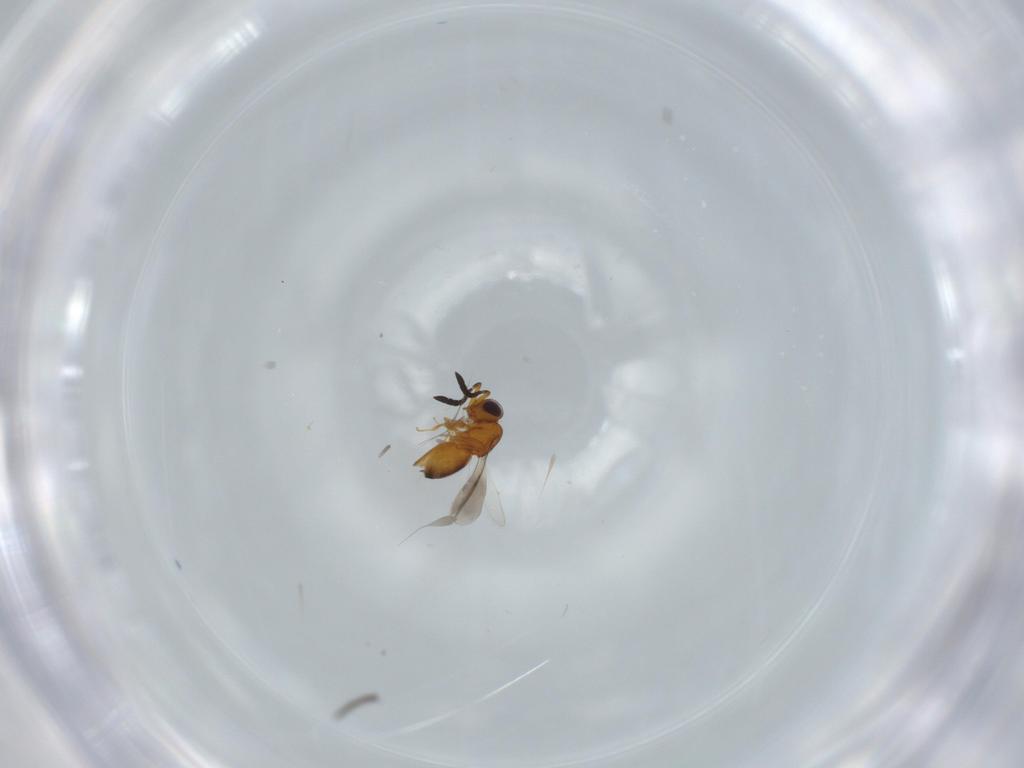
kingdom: Animalia
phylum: Arthropoda
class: Insecta
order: Hymenoptera
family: Ceraphronidae
